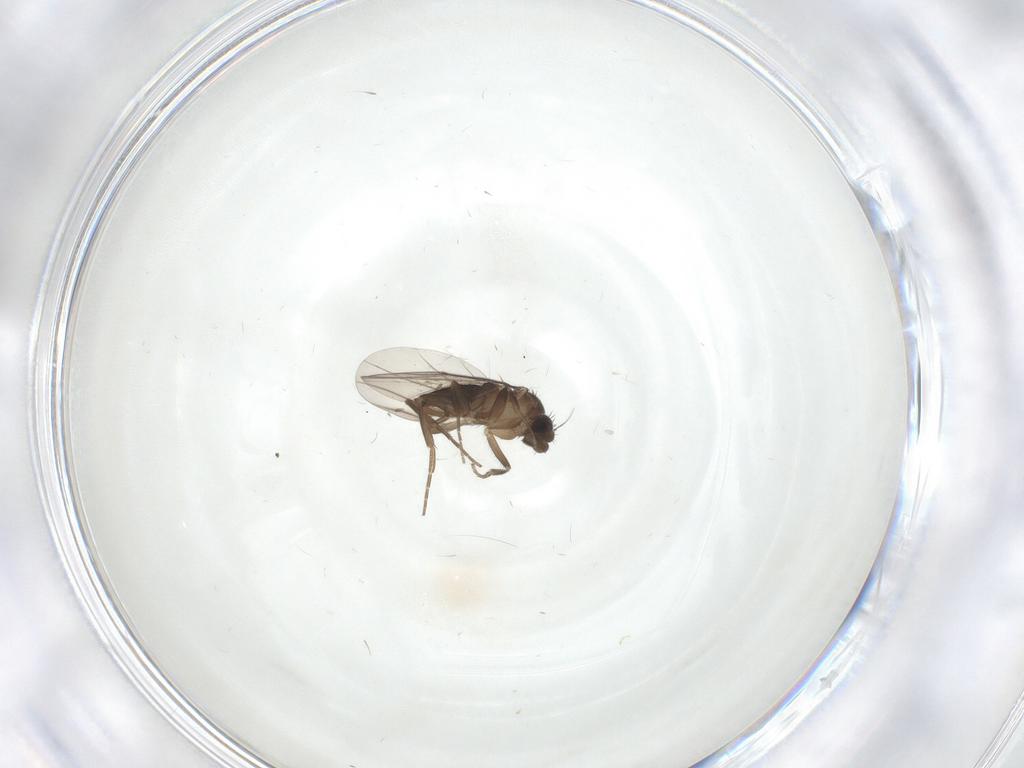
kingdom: Animalia
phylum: Arthropoda
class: Insecta
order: Diptera
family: Phoridae
